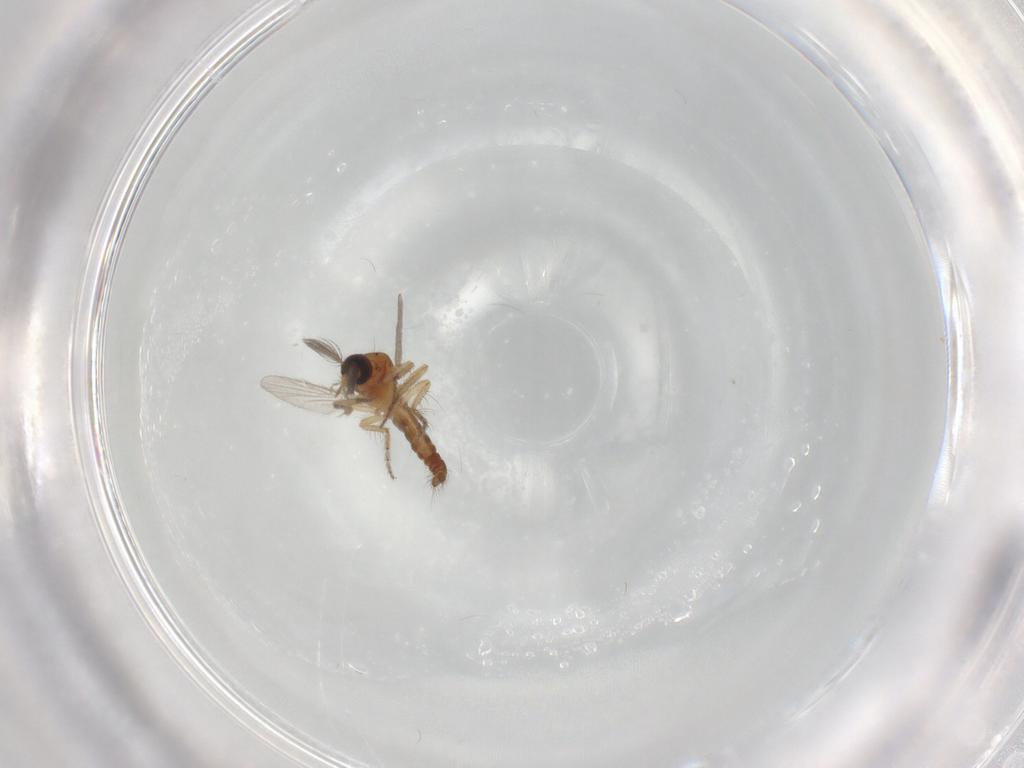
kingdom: Animalia
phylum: Arthropoda
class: Insecta
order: Diptera
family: Ceratopogonidae
